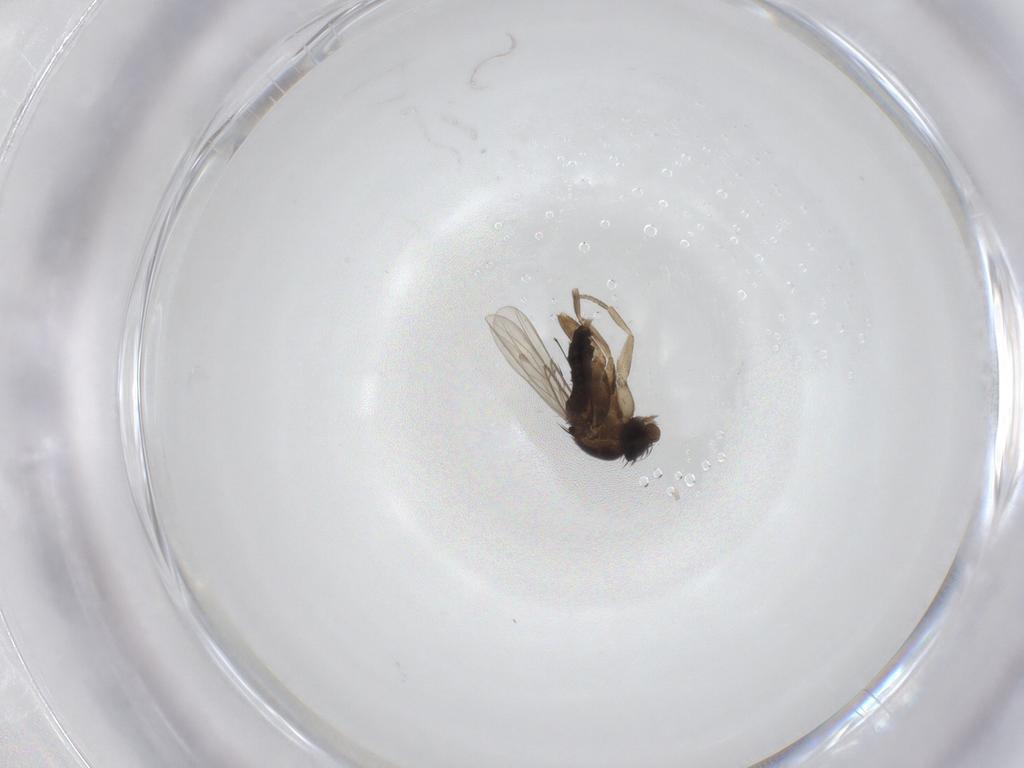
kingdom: Animalia
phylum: Arthropoda
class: Insecta
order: Diptera
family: Phoridae
